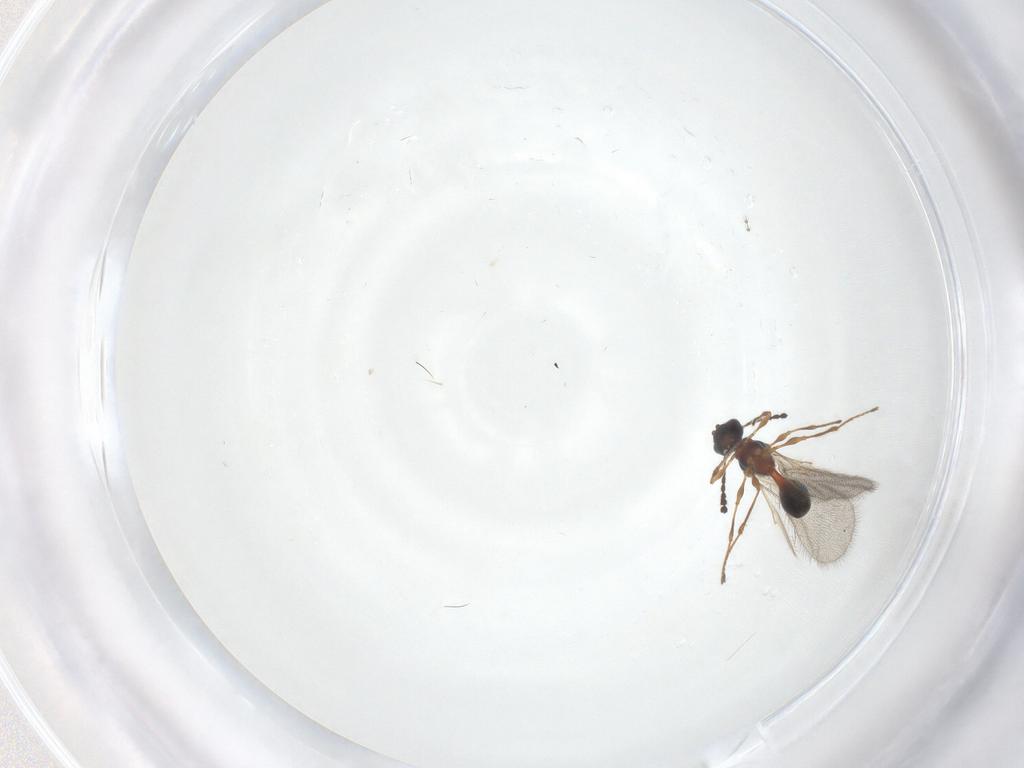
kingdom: Animalia
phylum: Arthropoda
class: Insecta
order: Hymenoptera
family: Diapriidae
